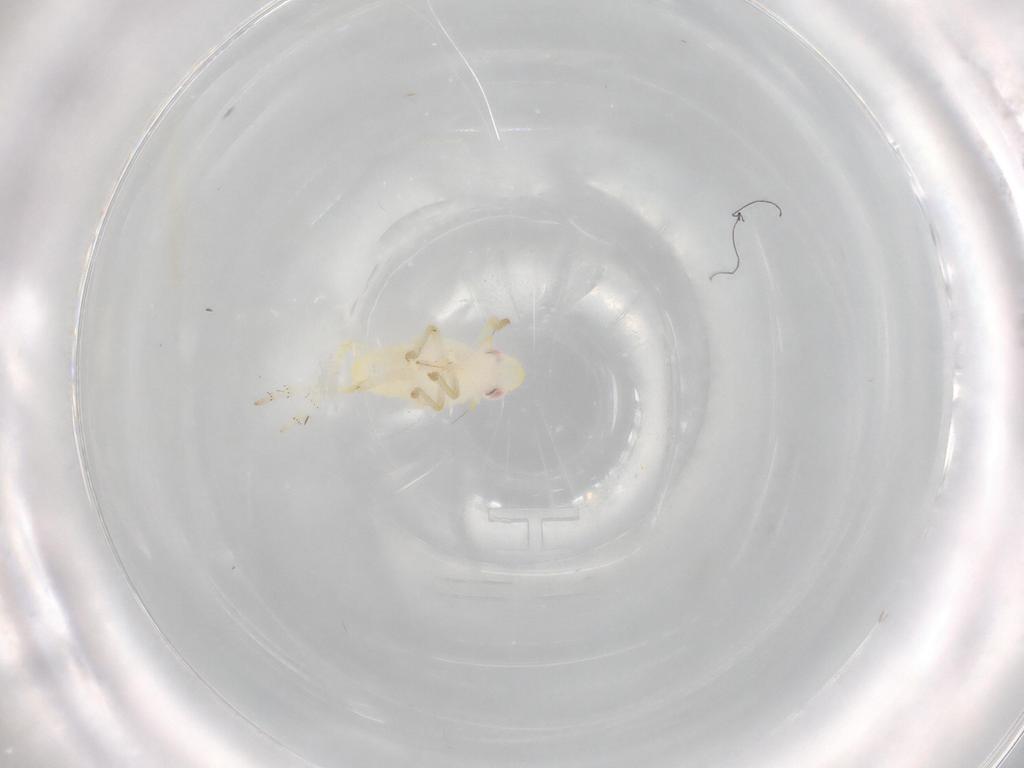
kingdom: Animalia
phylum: Arthropoda
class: Insecta
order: Hemiptera
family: Tropiduchidae
